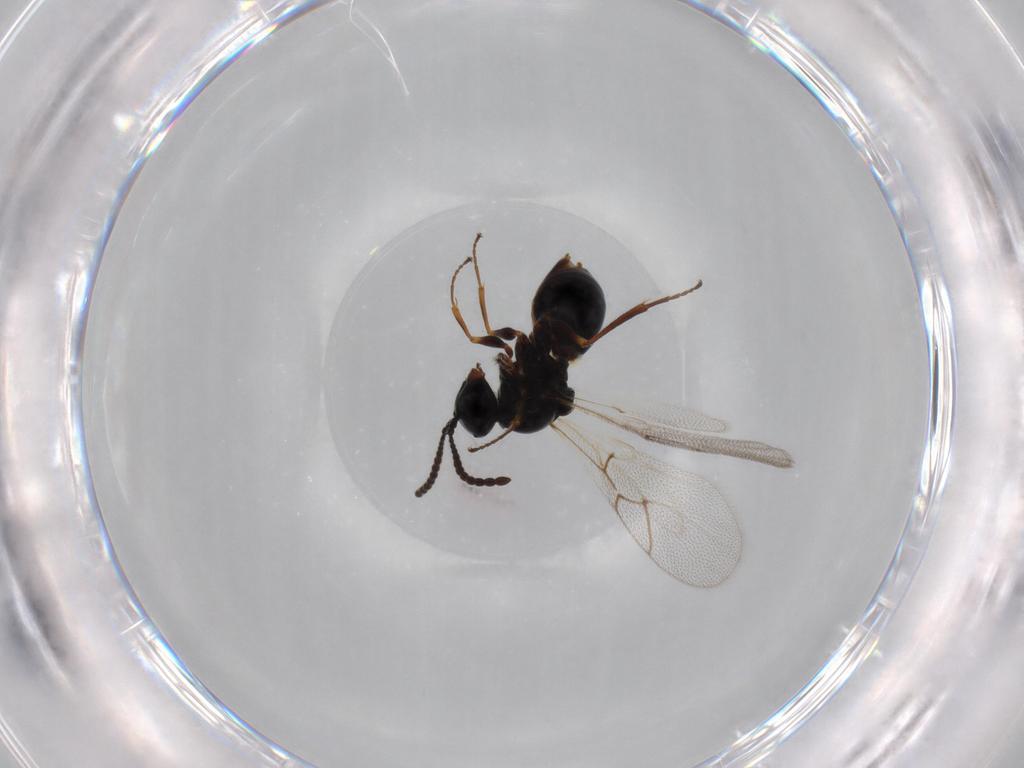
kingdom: Animalia
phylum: Arthropoda
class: Insecta
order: Hymenoptera
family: Figitidae
